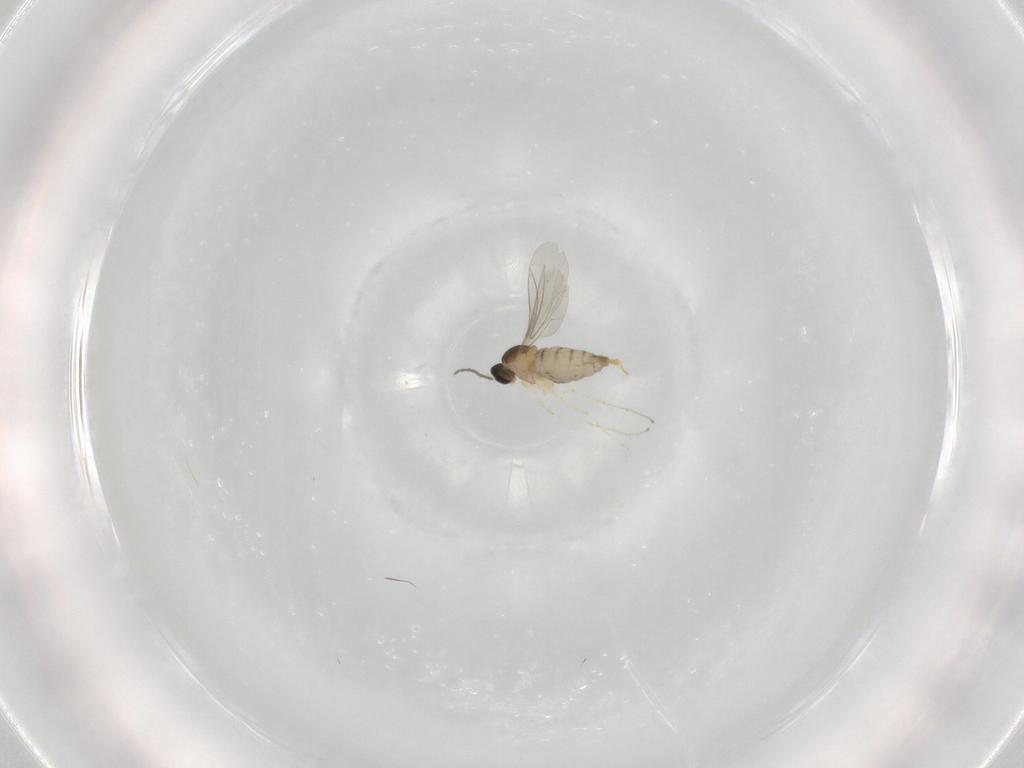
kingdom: Animalia
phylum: Arthropoda
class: Insecta
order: Diptera
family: Cecidomyiidae
